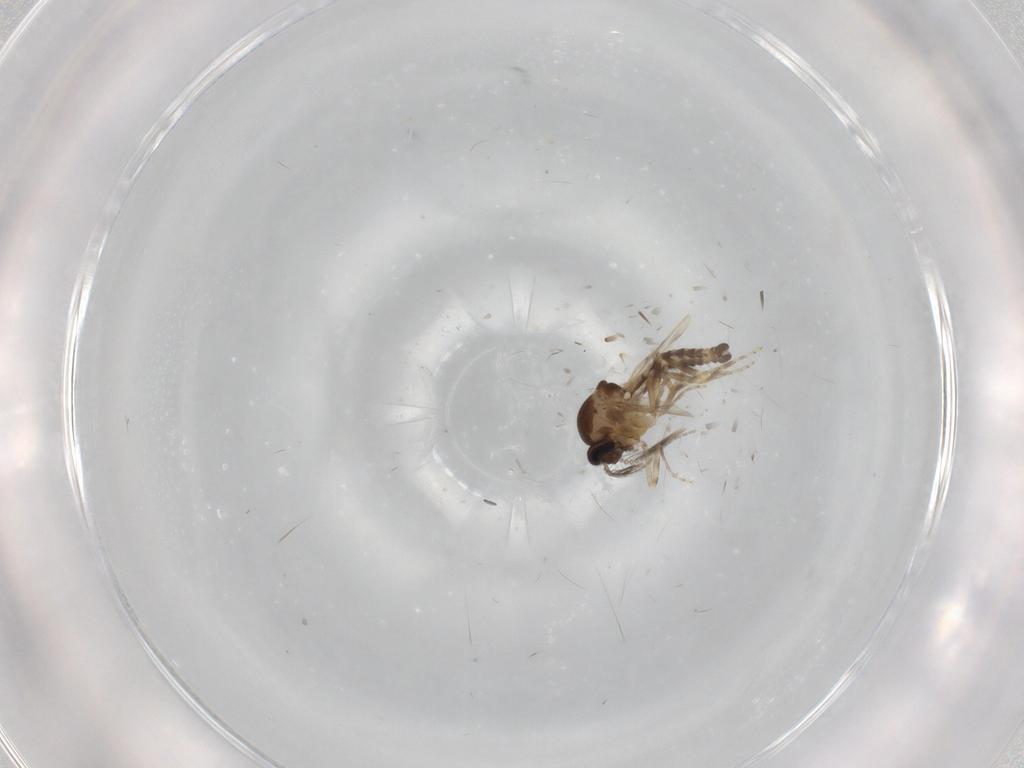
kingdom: Animalia
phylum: Arthropoda
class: Insecta
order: Diptera
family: Ceratopogonidae
